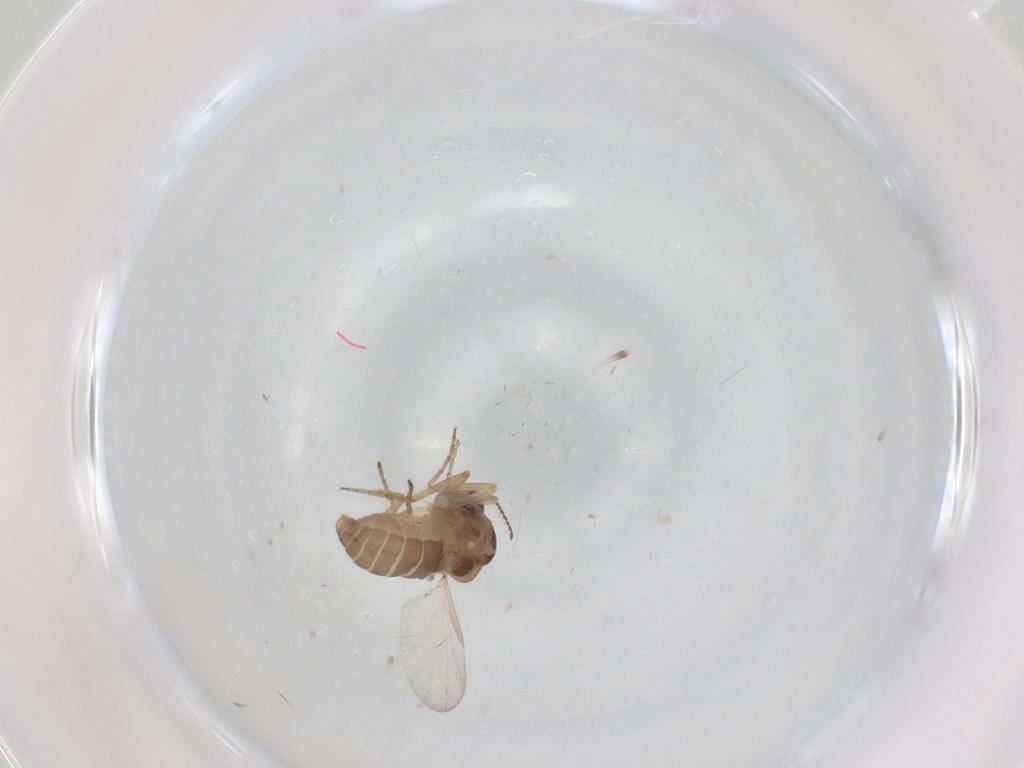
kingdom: Animalia
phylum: Arthropoda
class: Insecta
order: Diptera
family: Ceratopogonidae
